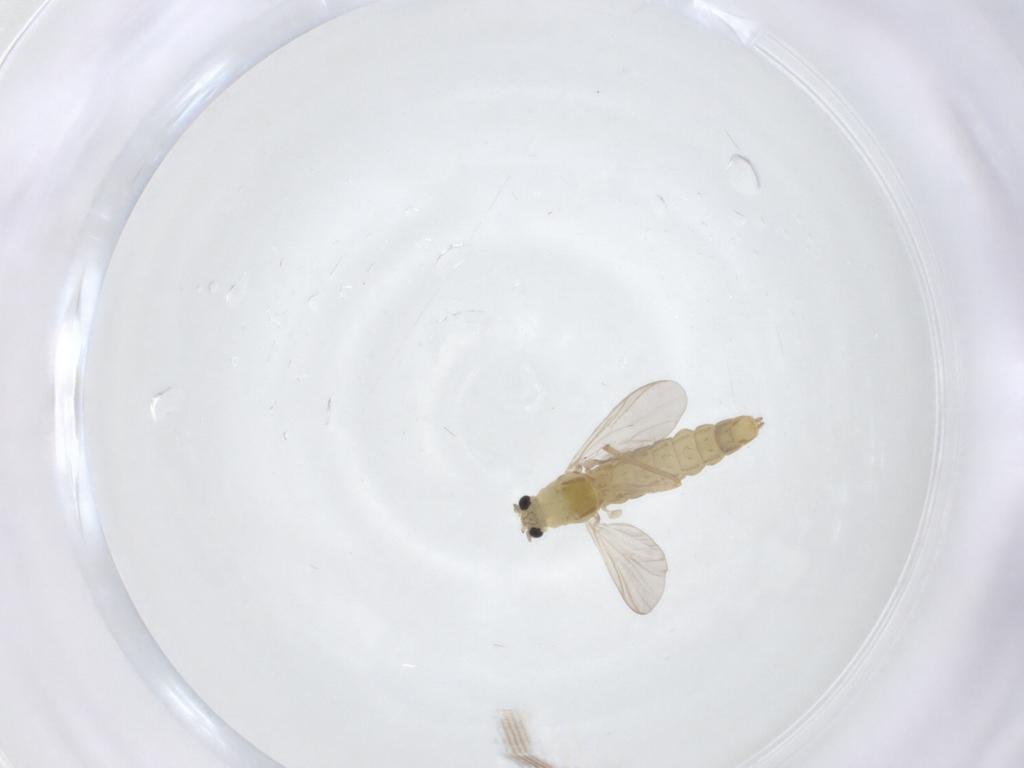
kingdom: Animalia
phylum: Arthropoda
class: Insecta
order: Diptera
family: Chironomidae
